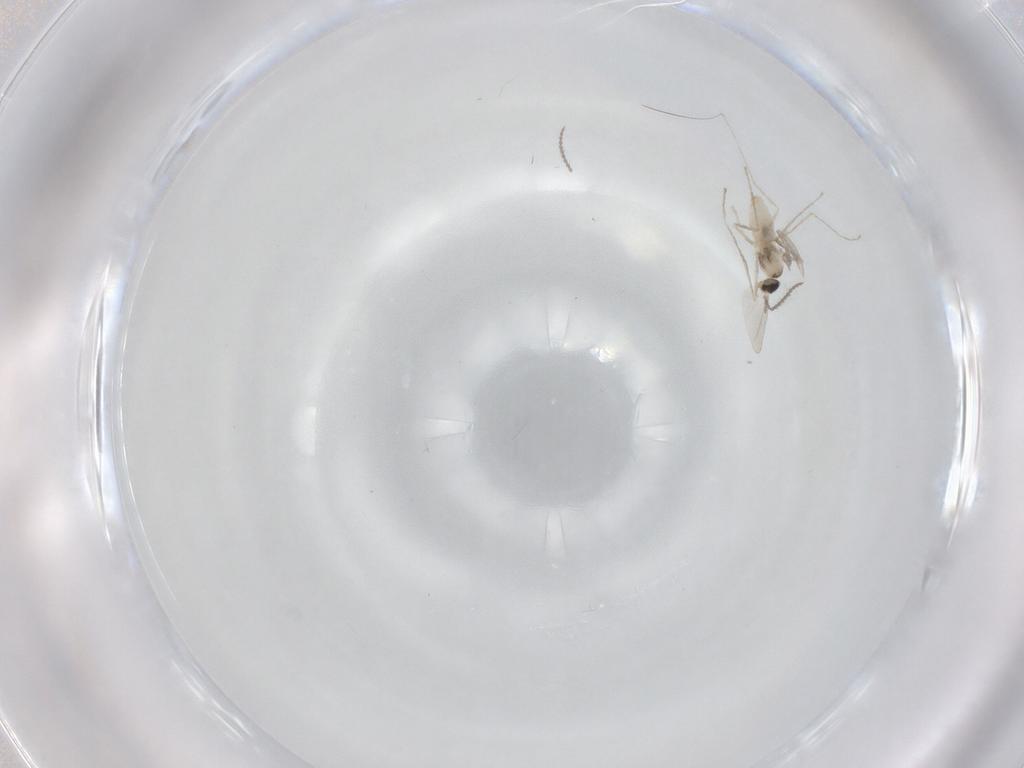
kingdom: Animalia
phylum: Arthropoda
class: Insecta
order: Diptera
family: Cecidomyiidae
